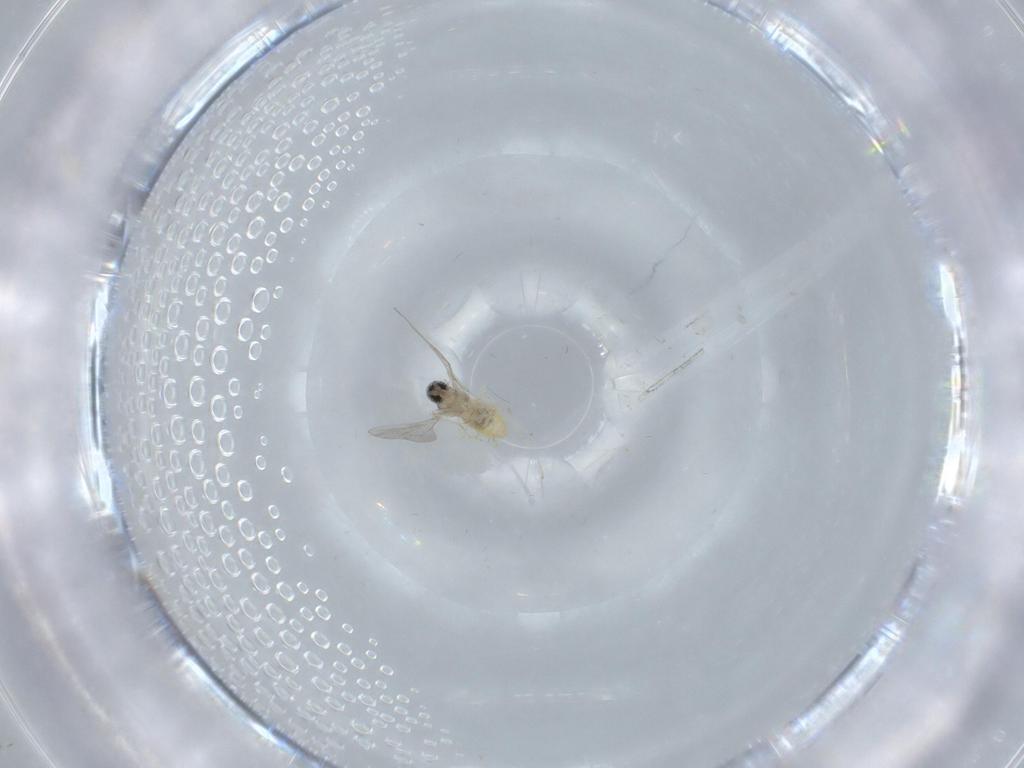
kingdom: Animalia
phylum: Arthropoda
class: Insecta
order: Diptera
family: Cecidomyiidae
